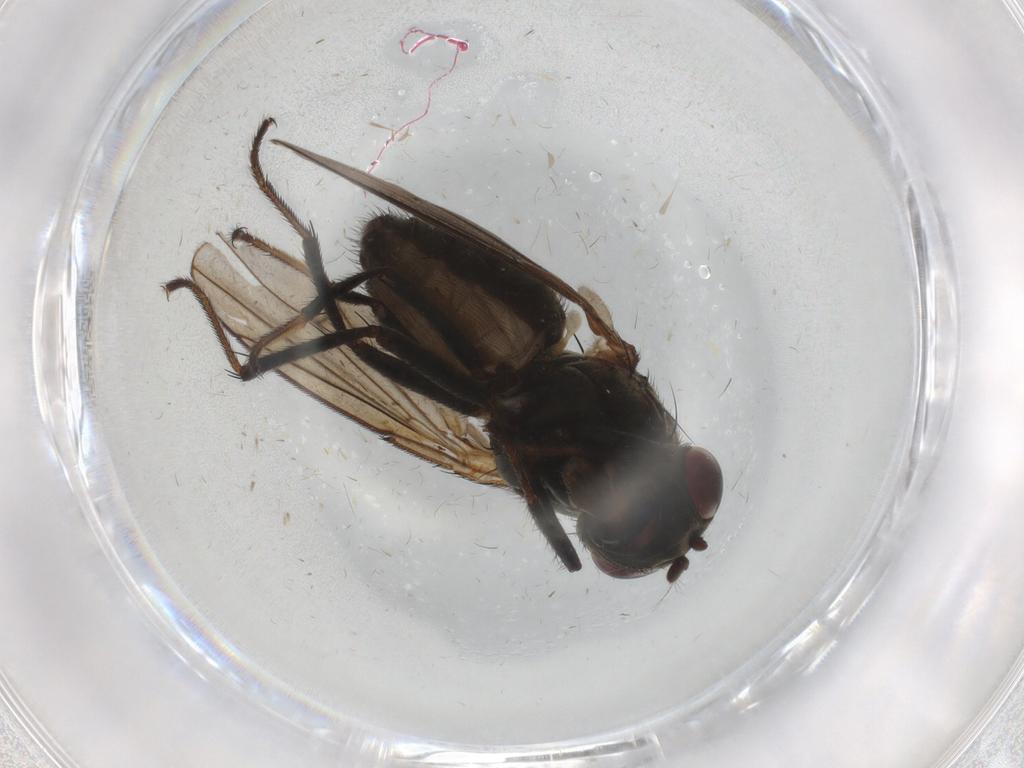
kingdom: Animalia
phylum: Arthropoda
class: Insecta
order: Diptera
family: Ephydridae
